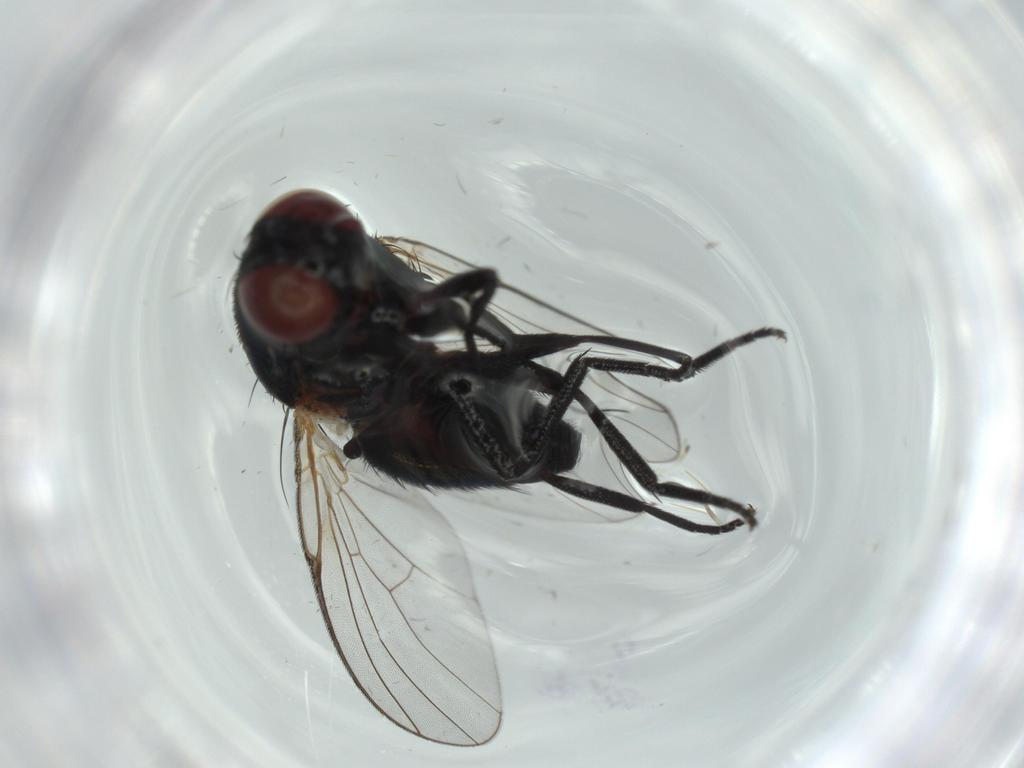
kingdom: Animalia
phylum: Arthropoda
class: Insecta
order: Diptera
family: Agromyzidae
